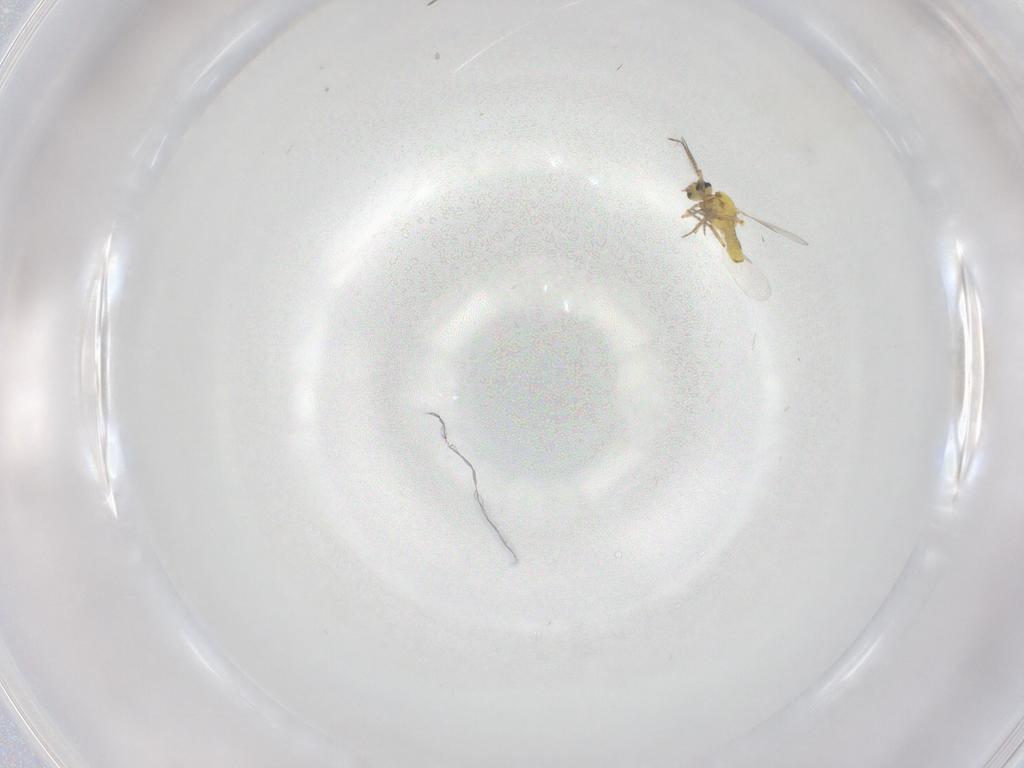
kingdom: Animalia
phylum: Arthropoda
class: Insecta
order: Diptera
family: Ceratopogonidae
